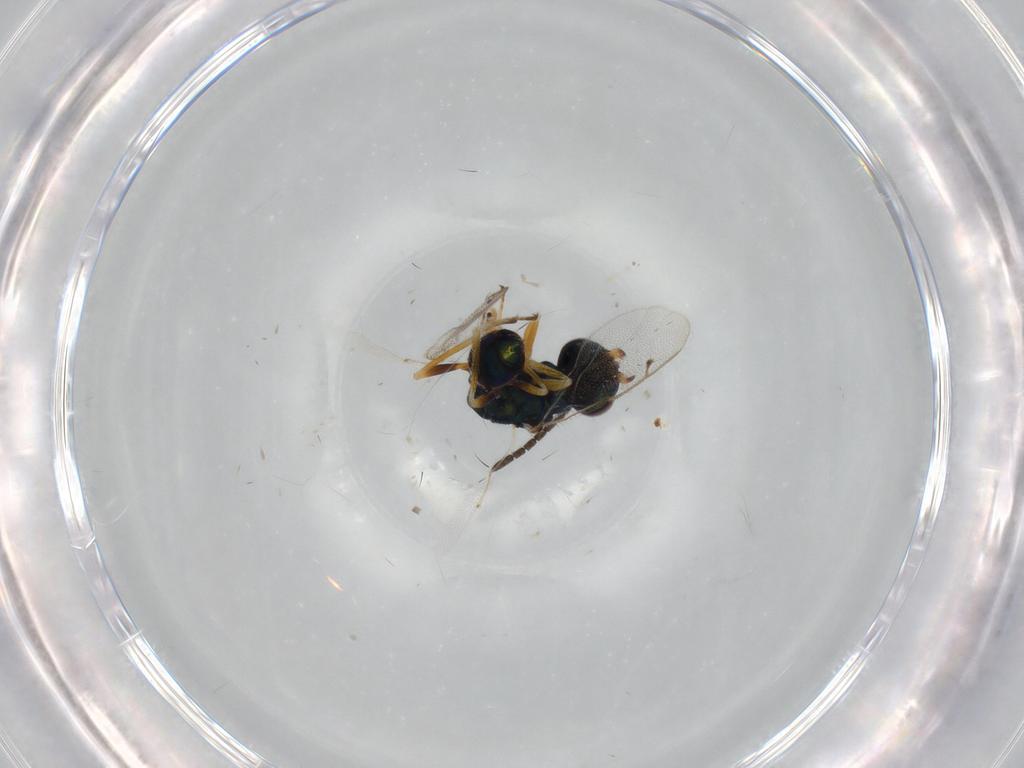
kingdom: Animalia
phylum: Arthropoda
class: Insecta
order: Hymenoptera
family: Pteromalidae
